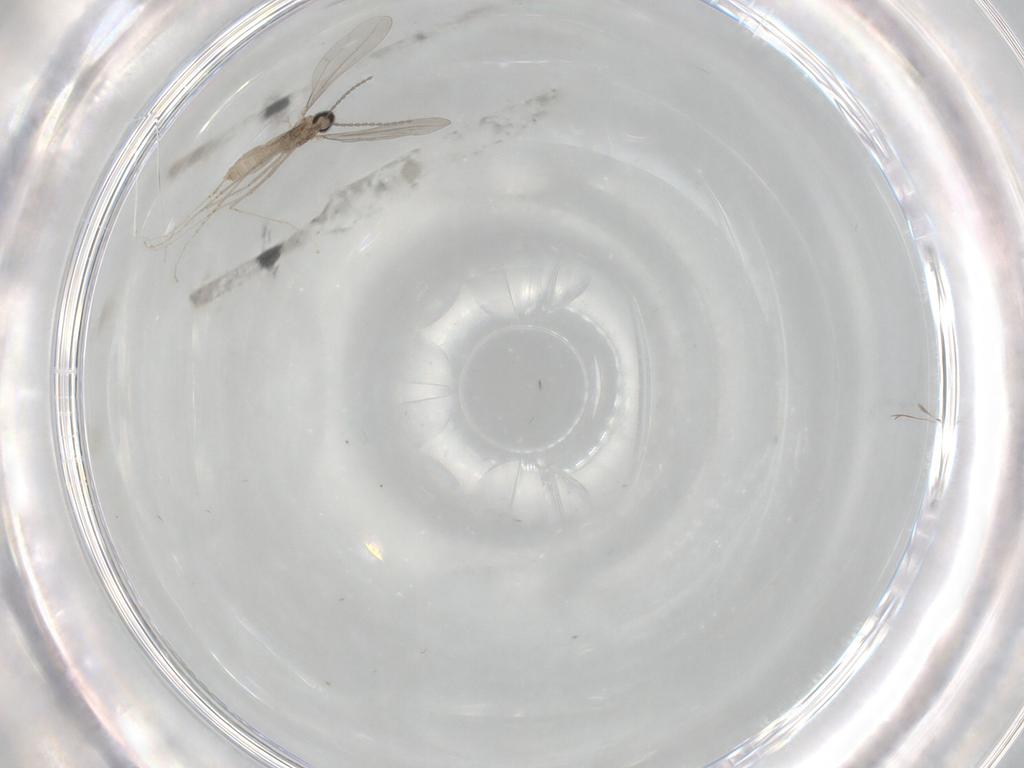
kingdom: Animalia
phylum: Arthropoda
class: Insecta
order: Diptera
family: Cecidomyiidae
